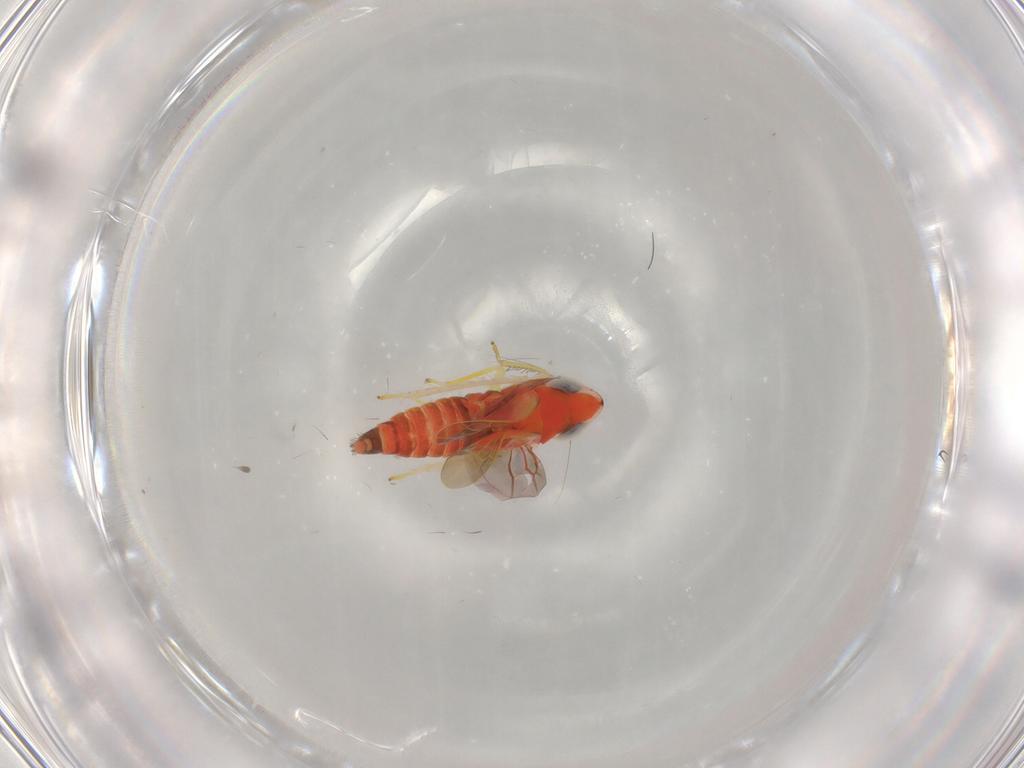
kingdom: Animalia
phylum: Arthropoda
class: Insecta
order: Hemiptera
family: Cicadellidae
